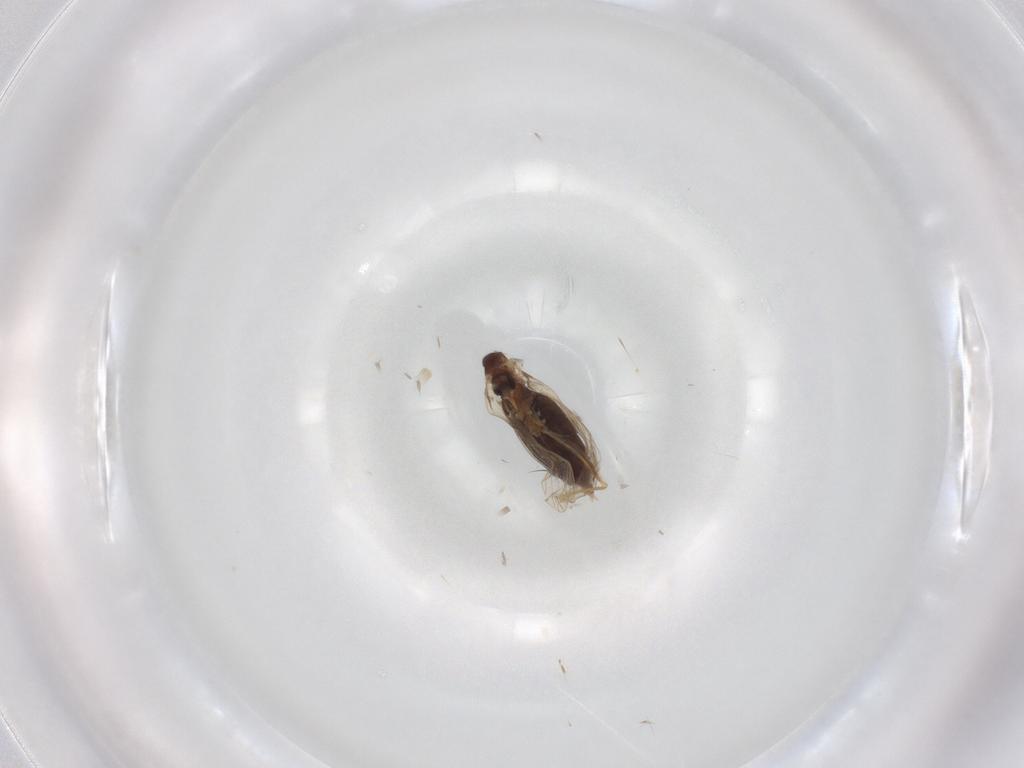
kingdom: Animalia
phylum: Arthropoda
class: Insecta
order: Diptera
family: Psychodidae
